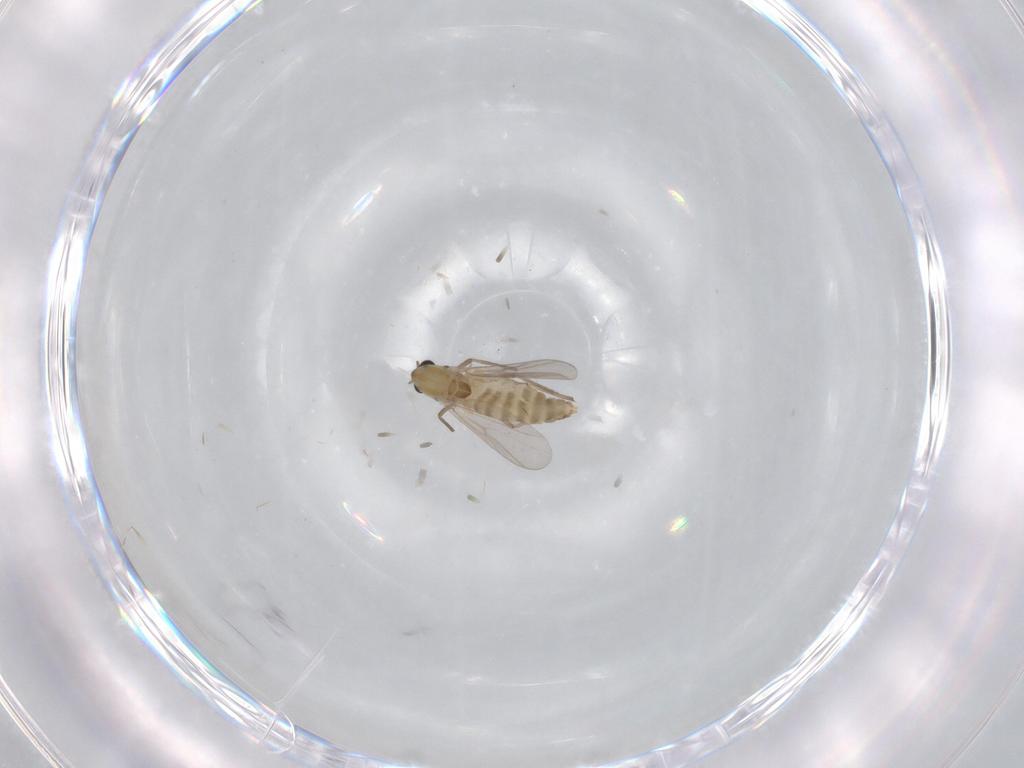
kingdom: Animalia
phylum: Arthropoda
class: Insecta
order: Diptera
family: Chironomidae
